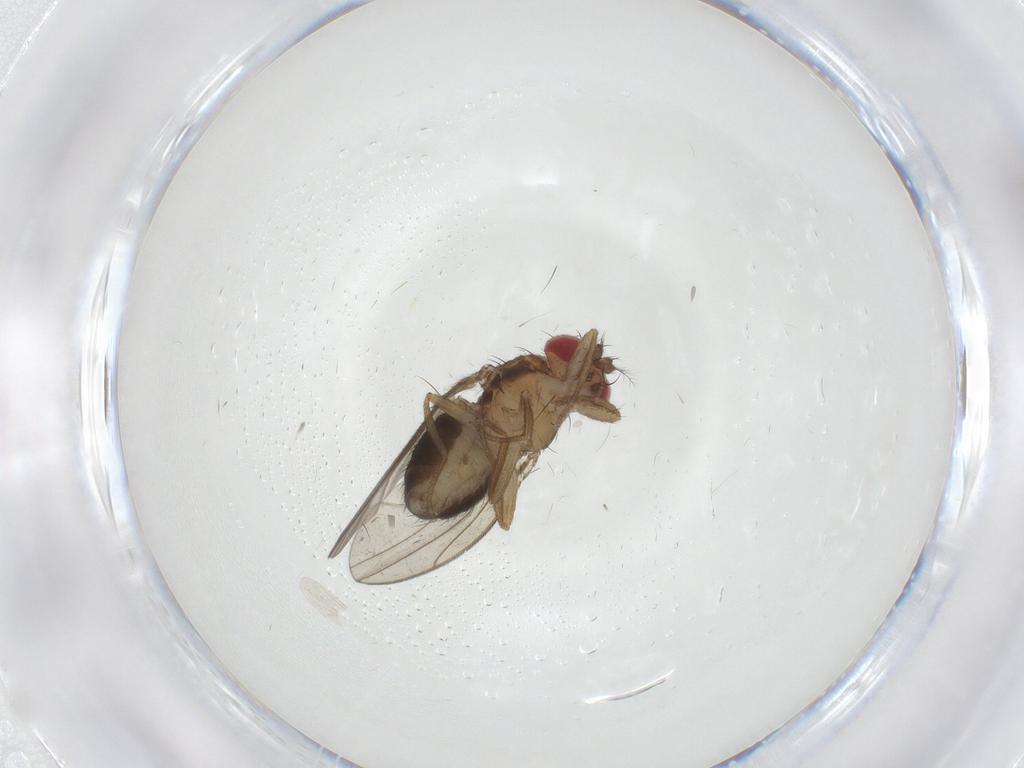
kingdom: Animalia
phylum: Arthropoda
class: Insecta
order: Diptera
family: Drosophilidae
